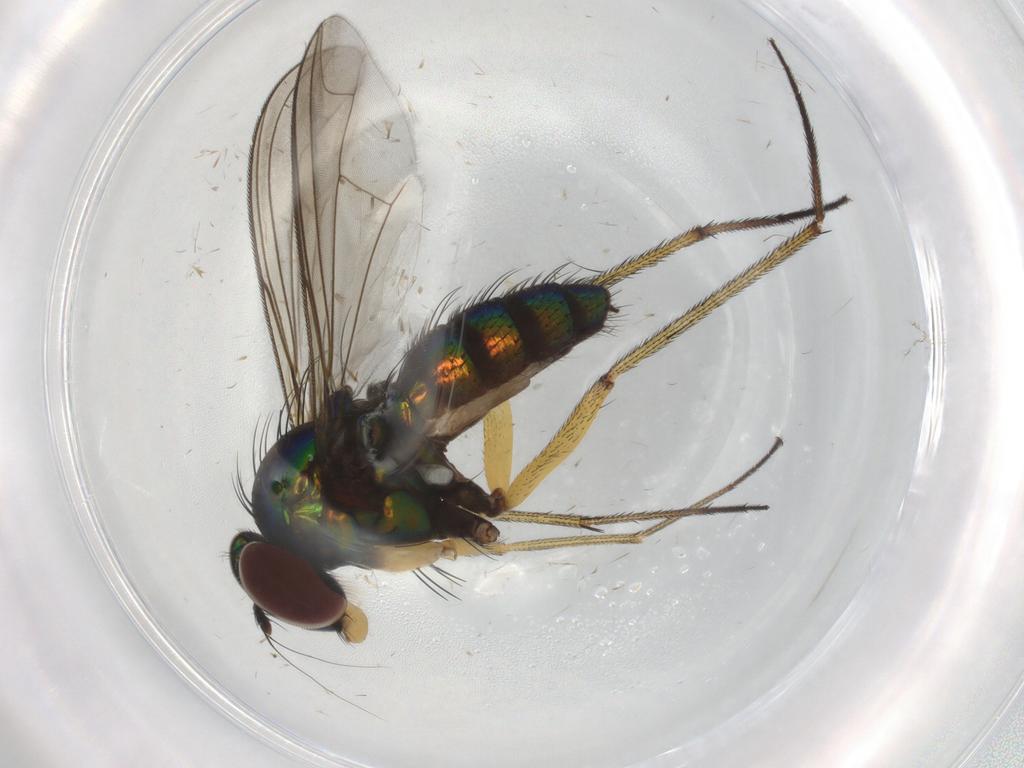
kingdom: Animalia
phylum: Arthropoda
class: Insecta
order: Diptera
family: Dolichopodidae
